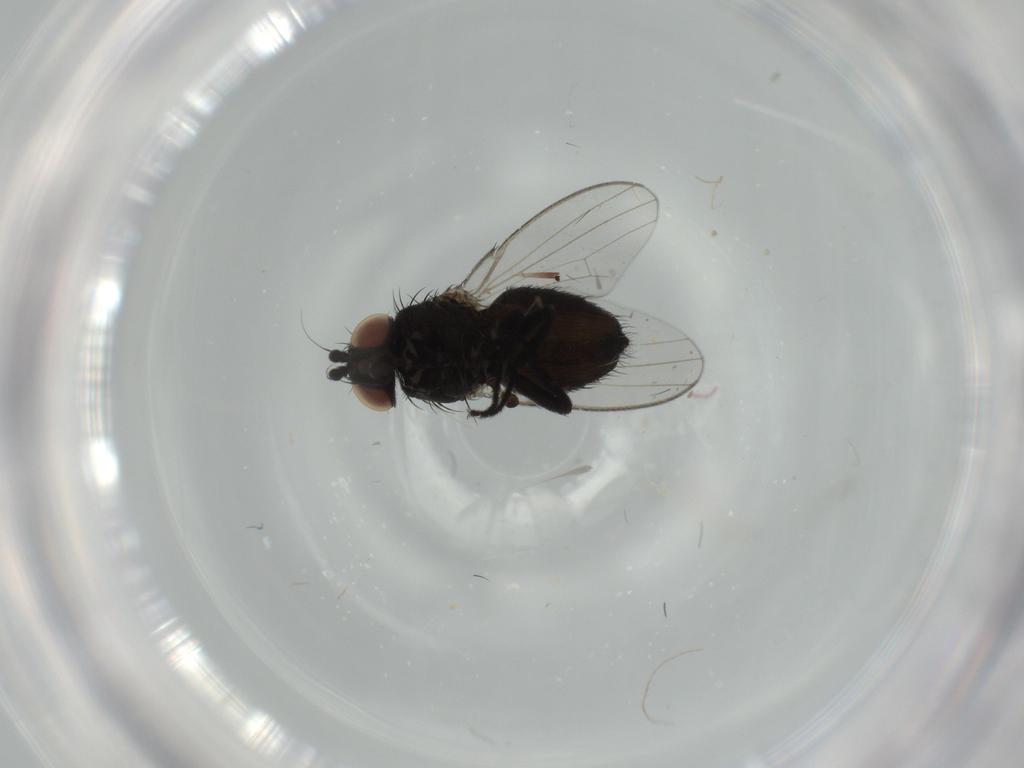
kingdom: Animalia
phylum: Arthropoda
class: Insecta
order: Diptera
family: Milichiidae
